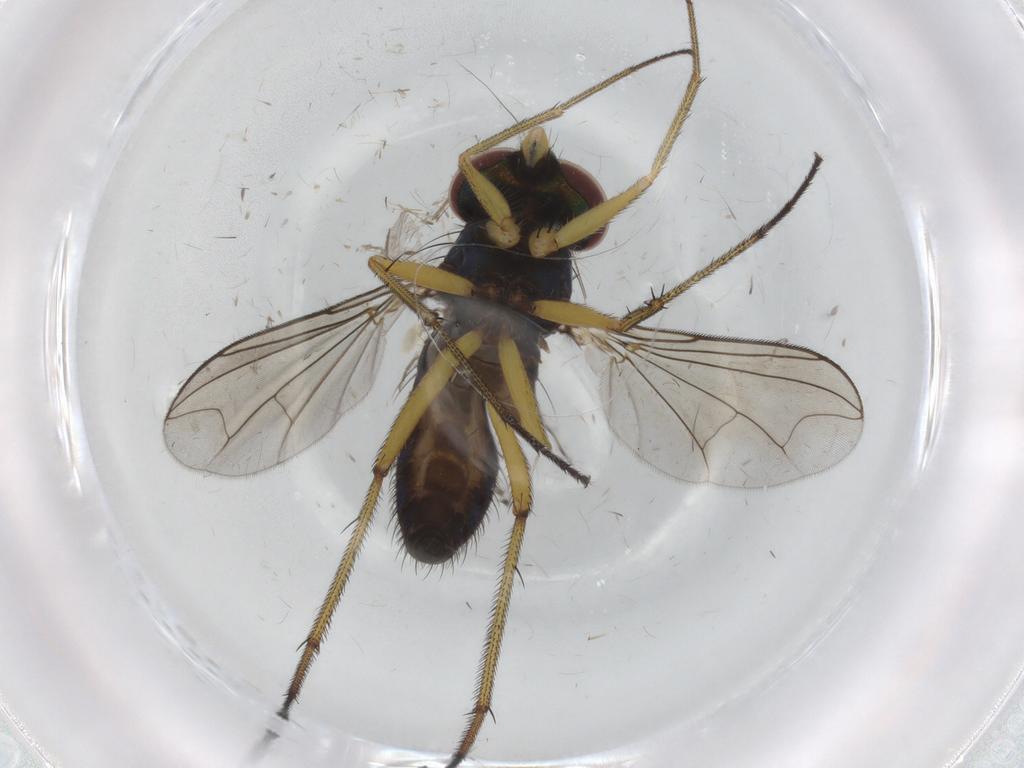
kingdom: Animalia
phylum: Arthropoda
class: Insecta
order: Diptera
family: Dolichopodidae
